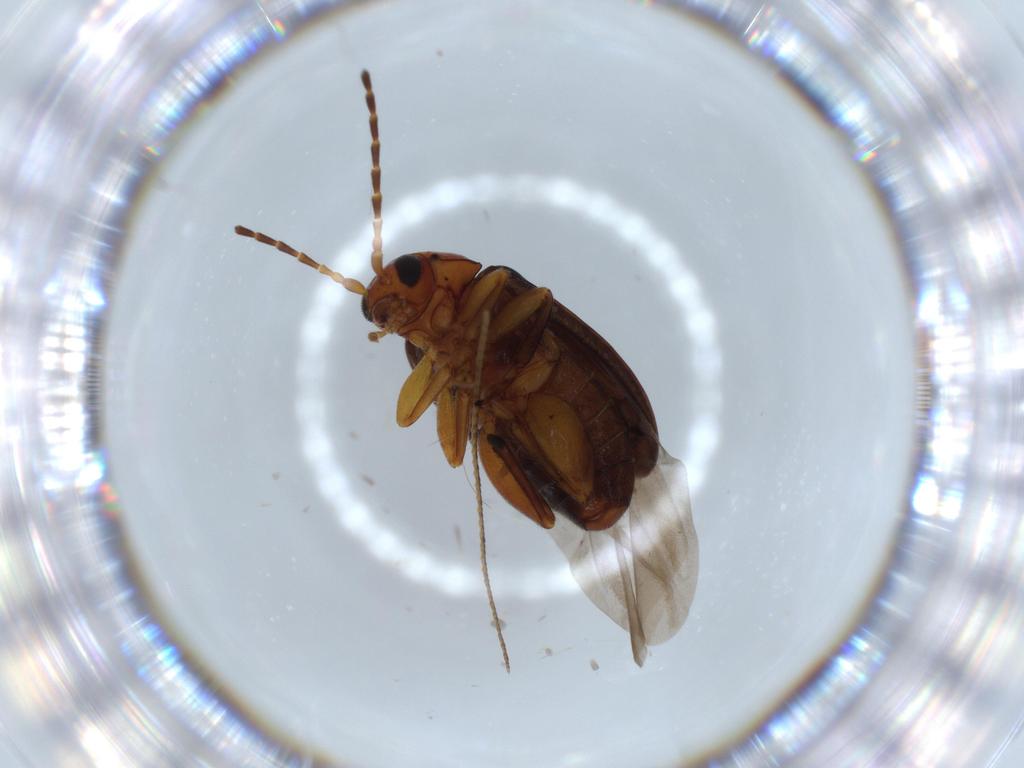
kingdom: Animalia
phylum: Arthropoda
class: Insecta
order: Coleoptera
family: Chrysomelidae
